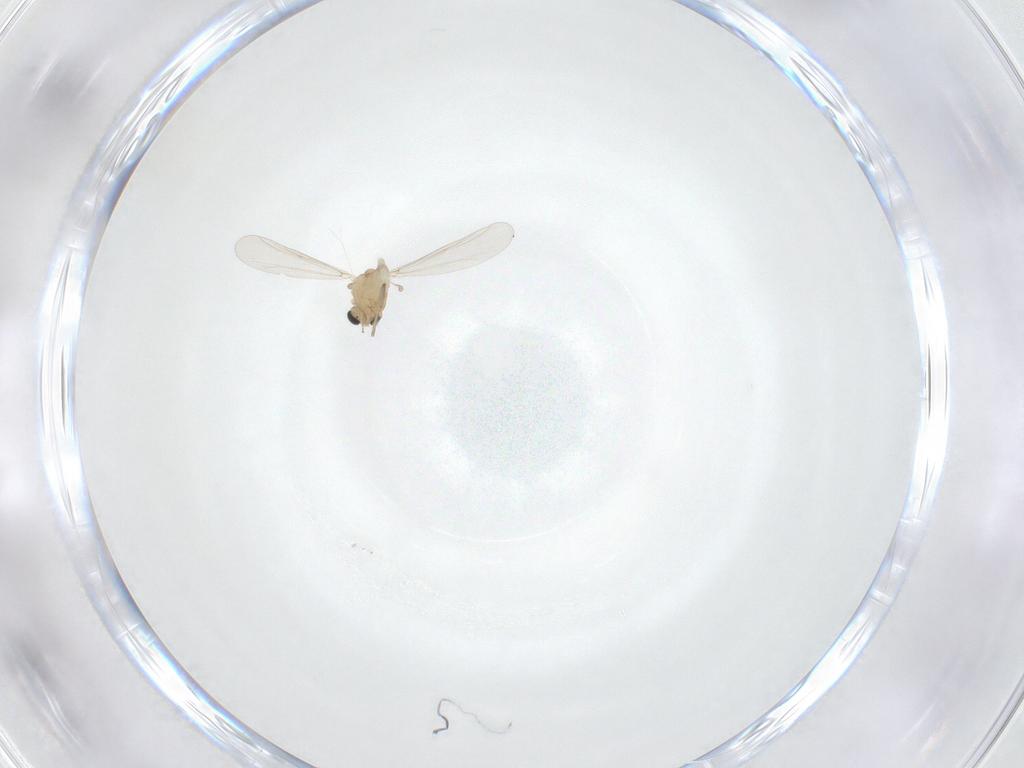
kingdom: Animalia
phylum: Arthropoda
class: Insecta
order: Diptera
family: Chironomidae
